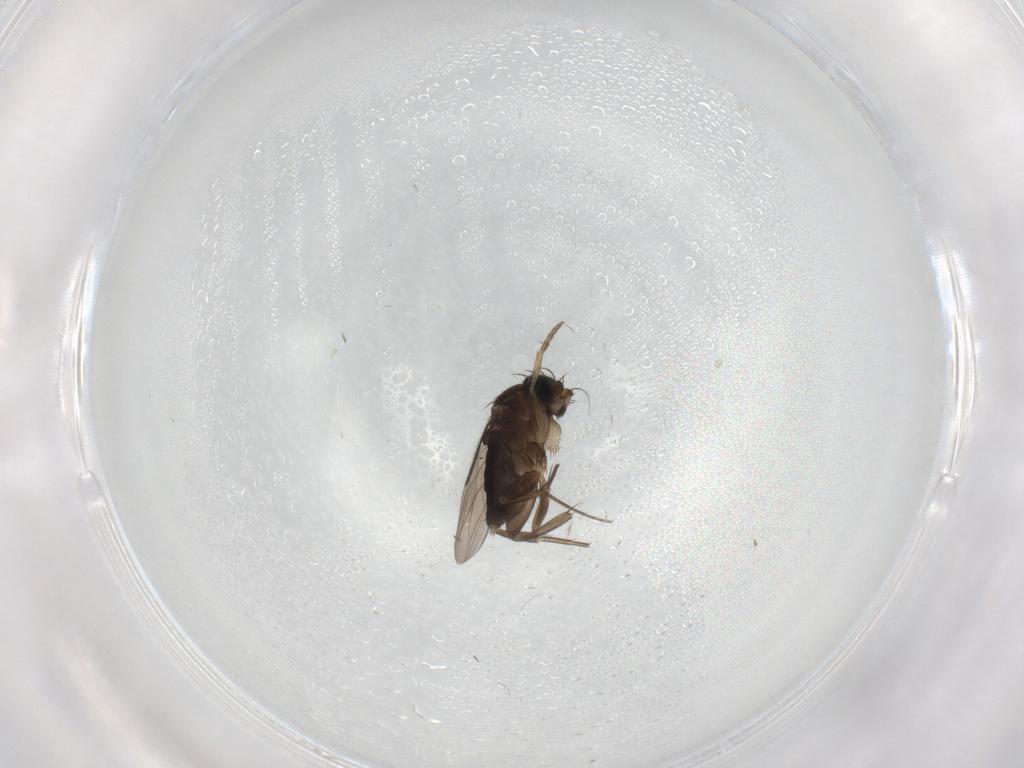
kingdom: Animalia
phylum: Arthropoda
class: Insecta
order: Diptera
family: Phoridae
